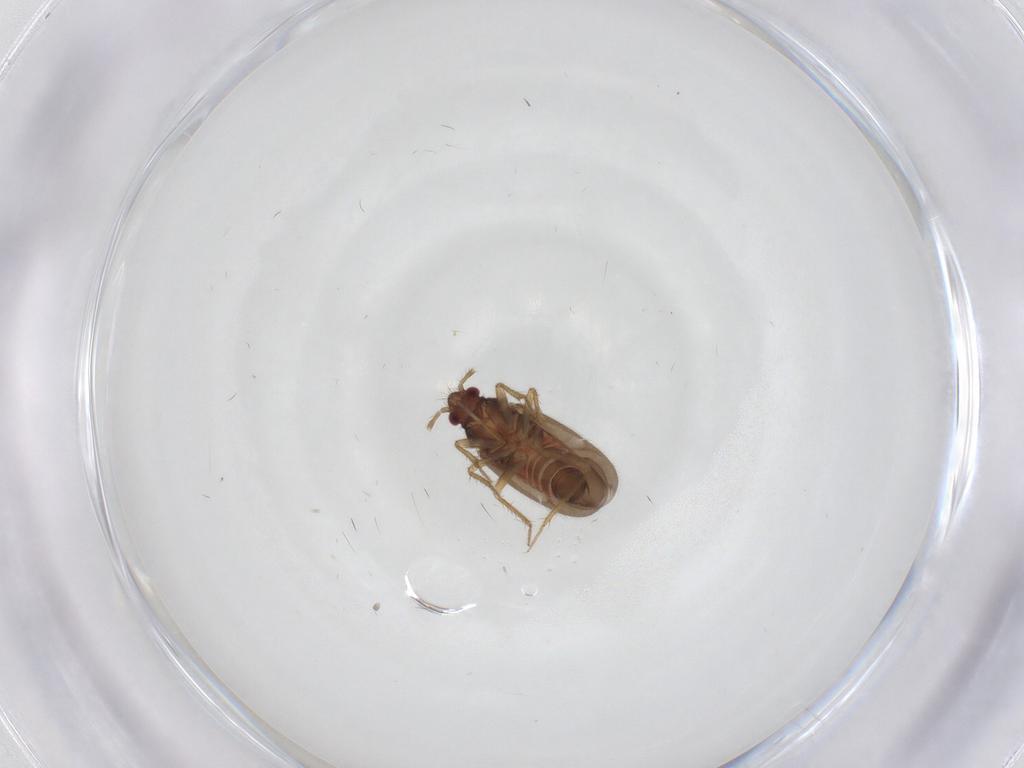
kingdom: Animalia
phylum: Arthropoda
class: Insecta
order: Hemiptera
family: Ceratocombidae
